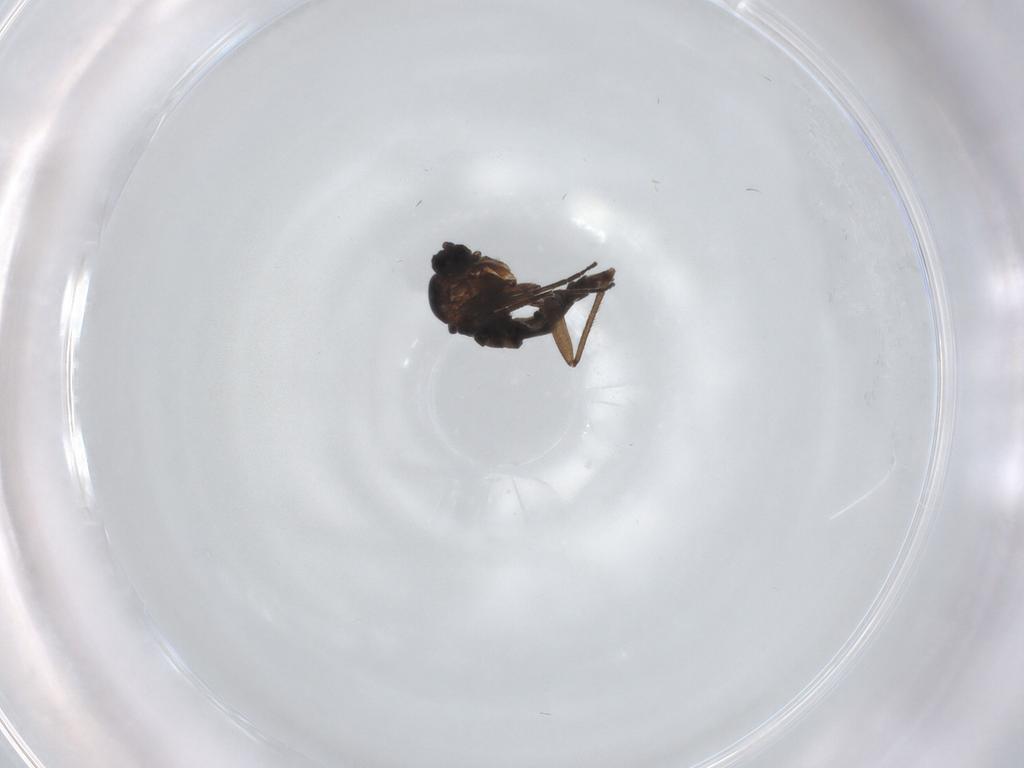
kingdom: Animalia
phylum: Arthropoda
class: Insecta
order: Diptera
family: Sciaridae
